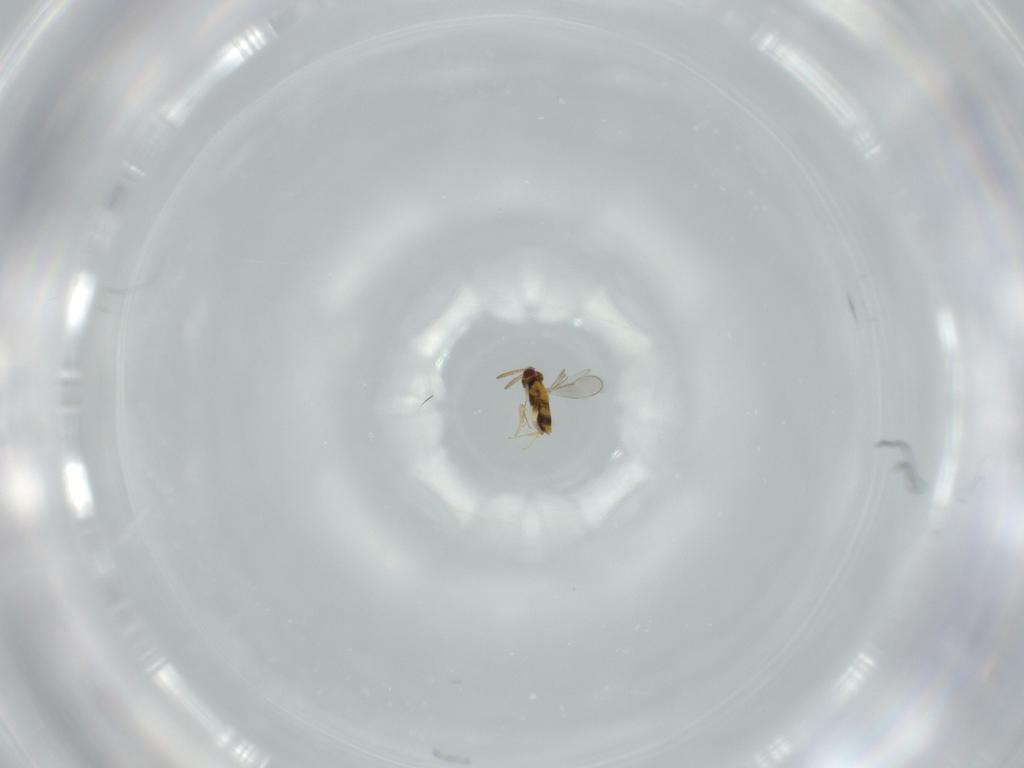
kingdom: Animalia
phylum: Arthropoda
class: Insecta
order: Hymenoptera
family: Aphelinidae
